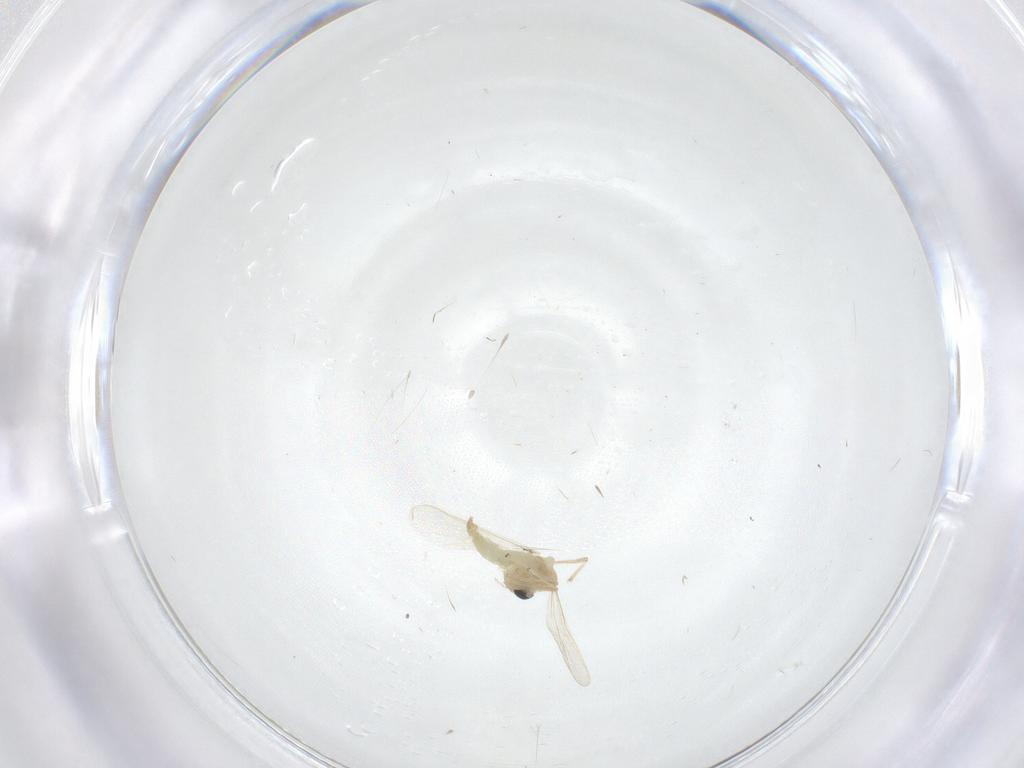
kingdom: Animalia
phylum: Arthropoda
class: Insecta
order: Diptera
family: Chironomidae
